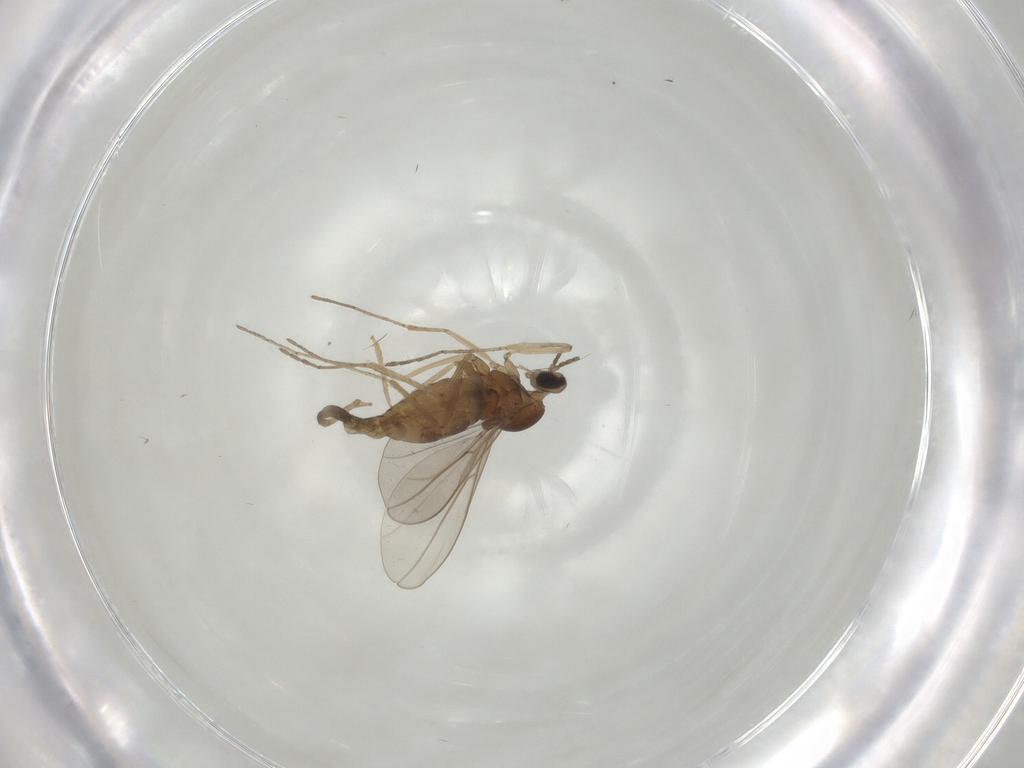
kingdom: Animalia
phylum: Arthropoda
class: Insecta
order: Diptera
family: Cecidomyiidae
